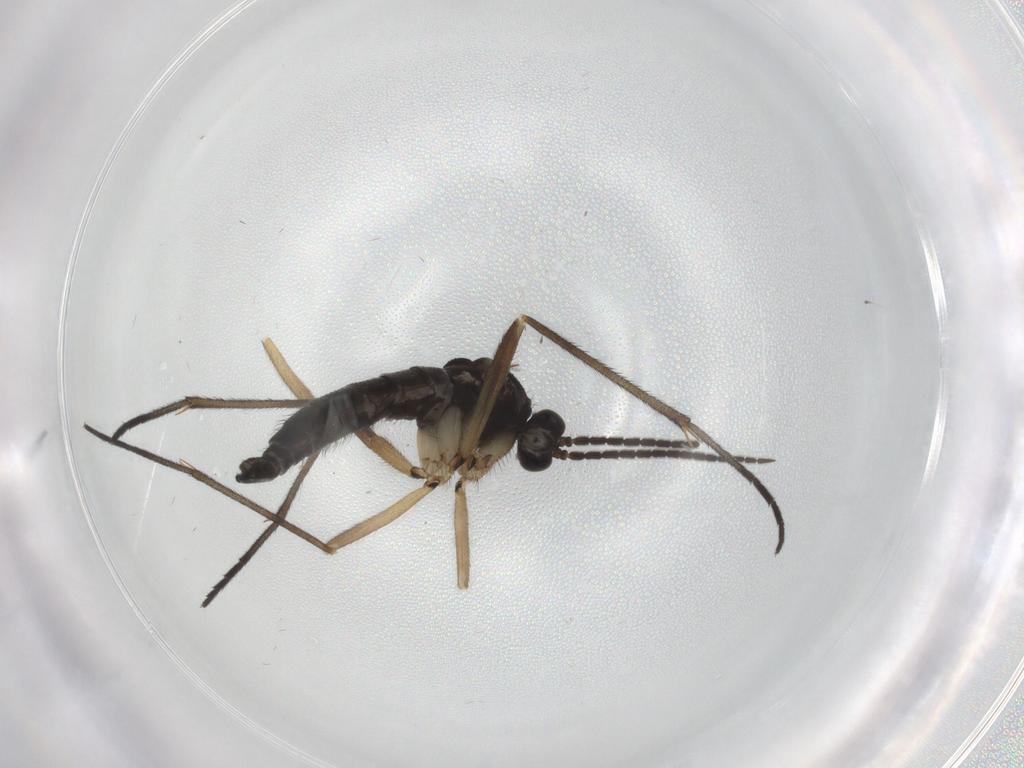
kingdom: Animalia
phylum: Arthropoda
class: Insecta
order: Diptera
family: Sciaridae
